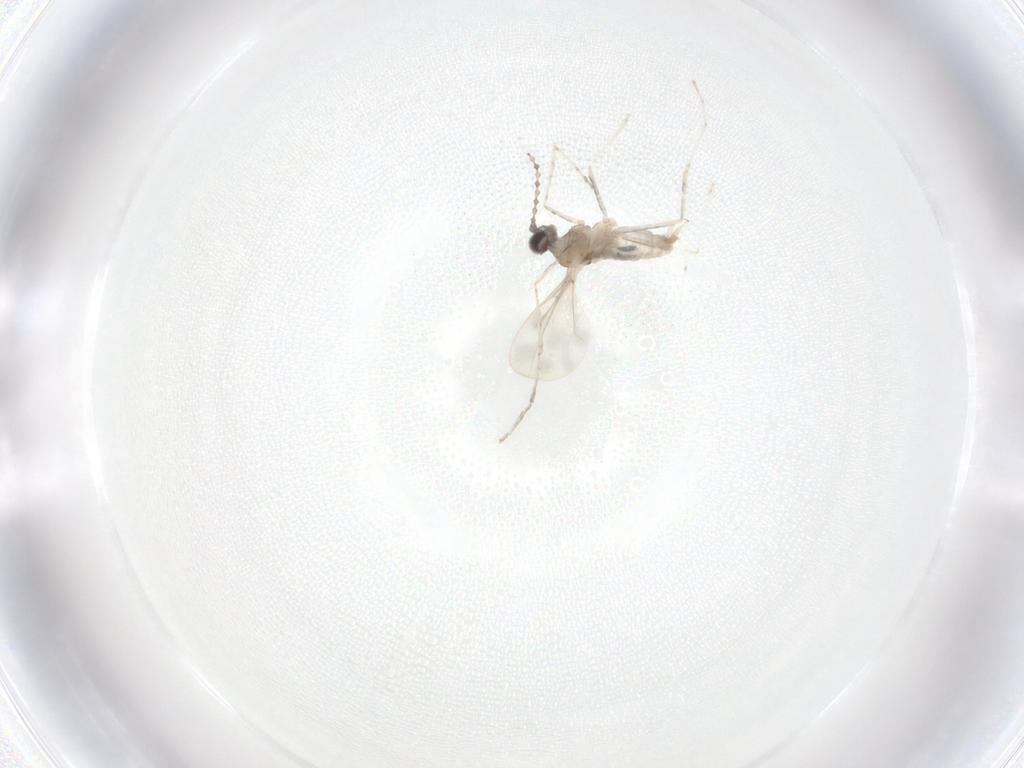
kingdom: Animalia
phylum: Arthropoda
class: Insecta
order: Diptera
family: Cecidomyiidae
